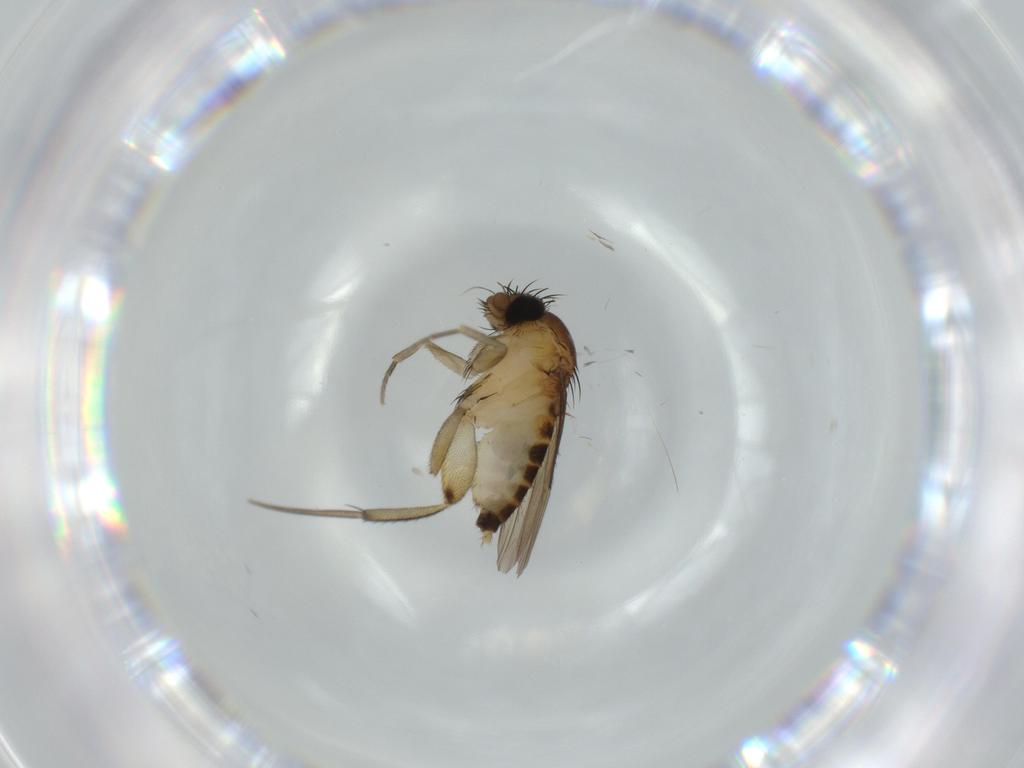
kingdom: Animalia
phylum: Arthropoda
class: Insecta
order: Diptera
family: Phoridae
